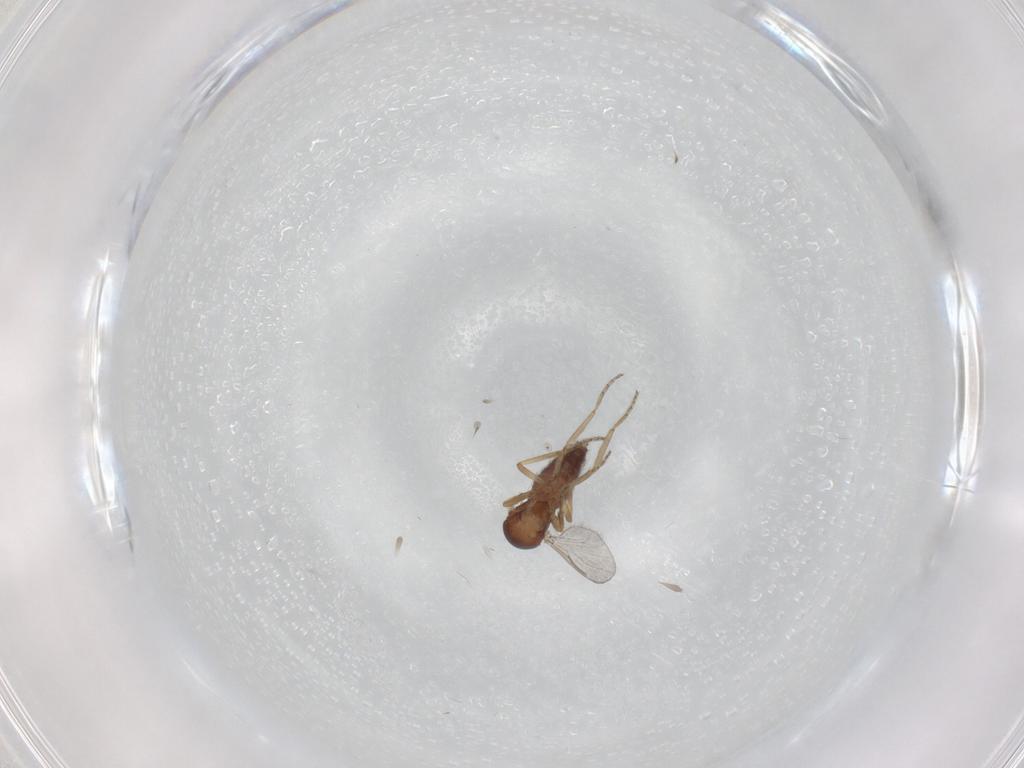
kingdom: Animalia
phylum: Arthropoda
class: Insecta
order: Diptera
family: Ceratopogonidae
